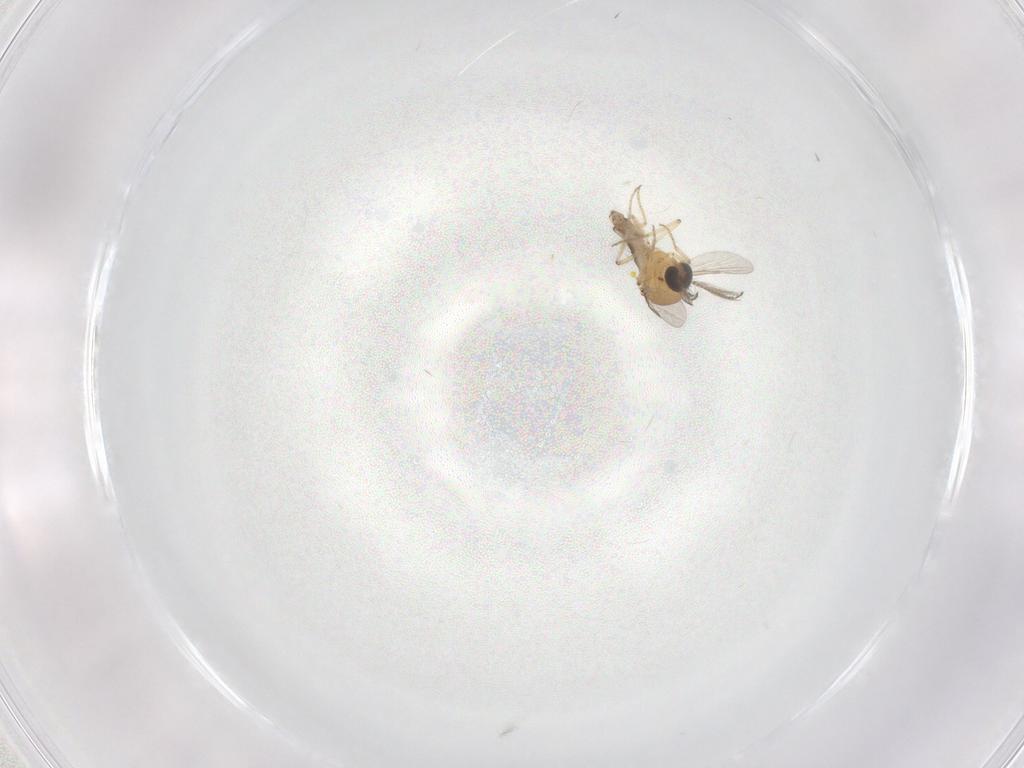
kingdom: Animalia
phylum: Arthropoda
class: Insecta
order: Diptera
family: Ceratopogonidae
